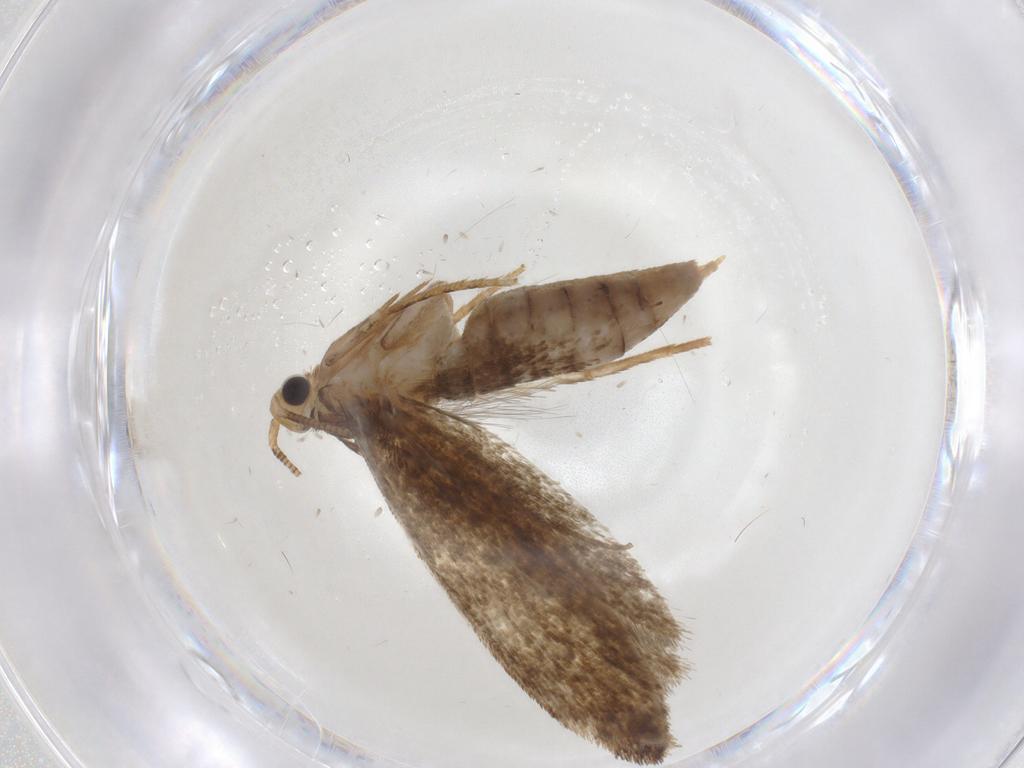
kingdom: Animalia
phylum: Arthropoda
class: Insecta
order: Lepidoptera
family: Noctuidae
